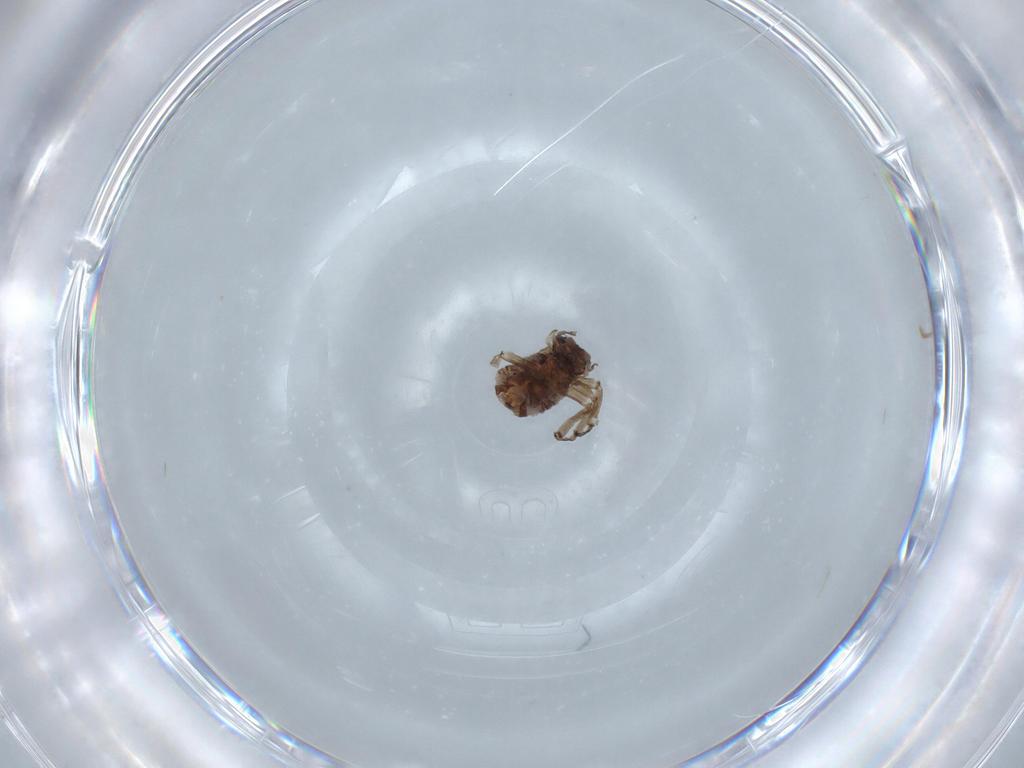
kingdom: Animalia
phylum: Arthropoda
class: Insecta
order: Psocodea
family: Psocidae
